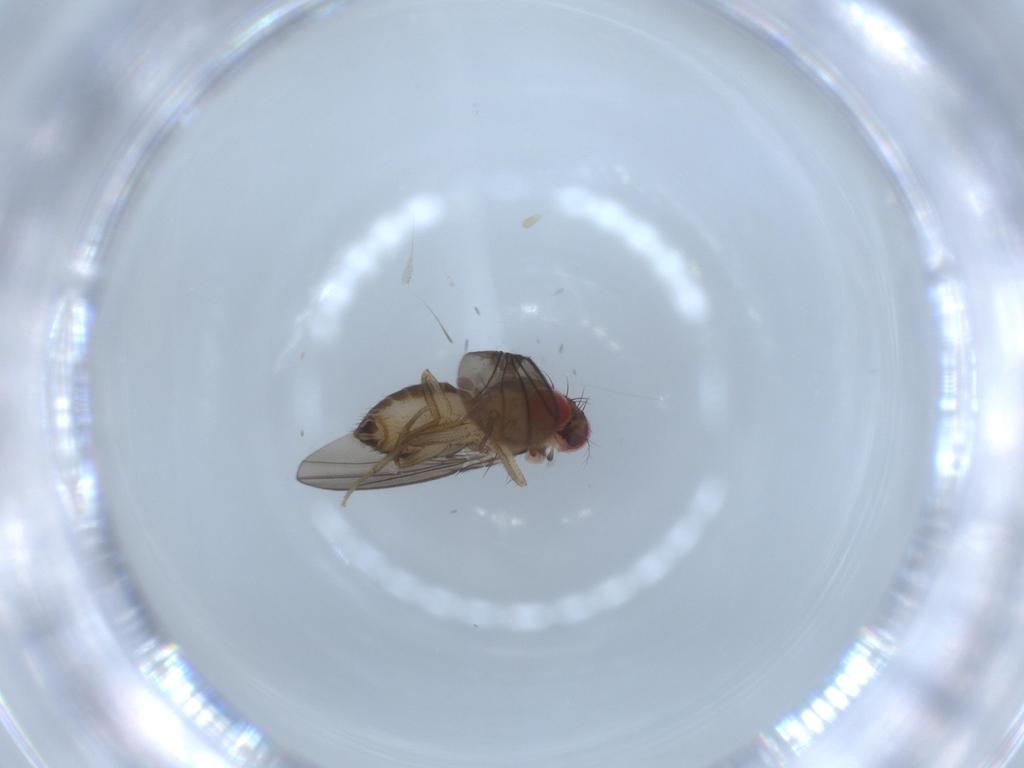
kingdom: Animalia
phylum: Arthropoda
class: Insecta
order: Diptera
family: Drosophilidae
